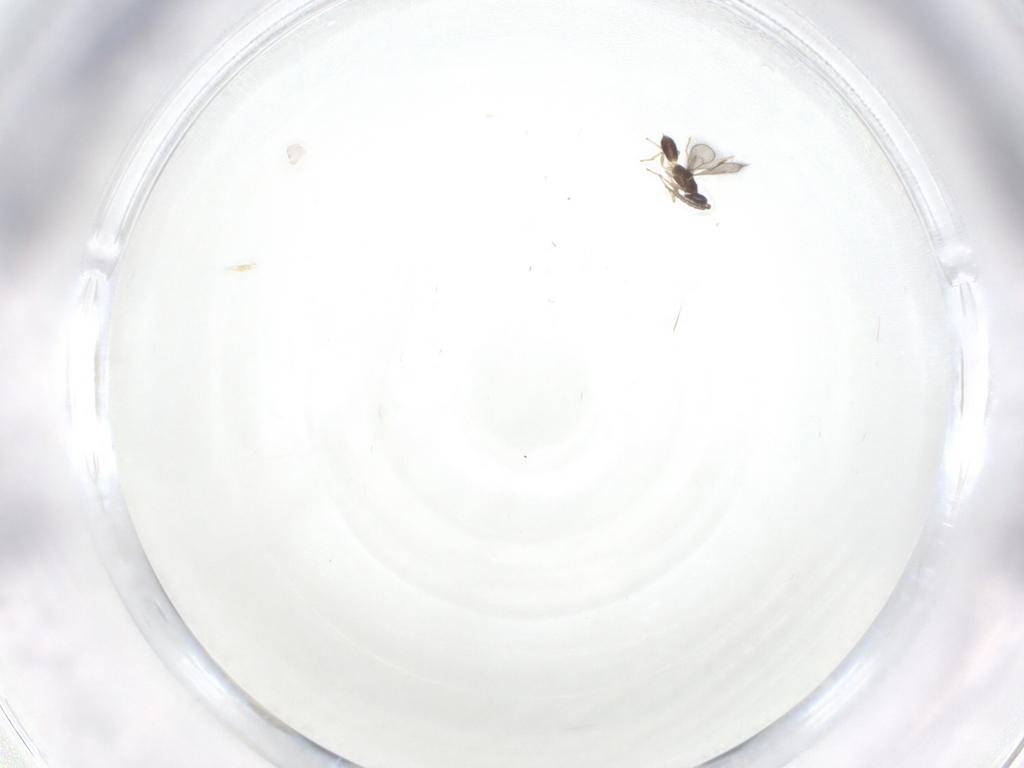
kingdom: Animalia
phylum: Arthropoda
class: Insecta
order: Hymenoptera
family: Eulophidae
